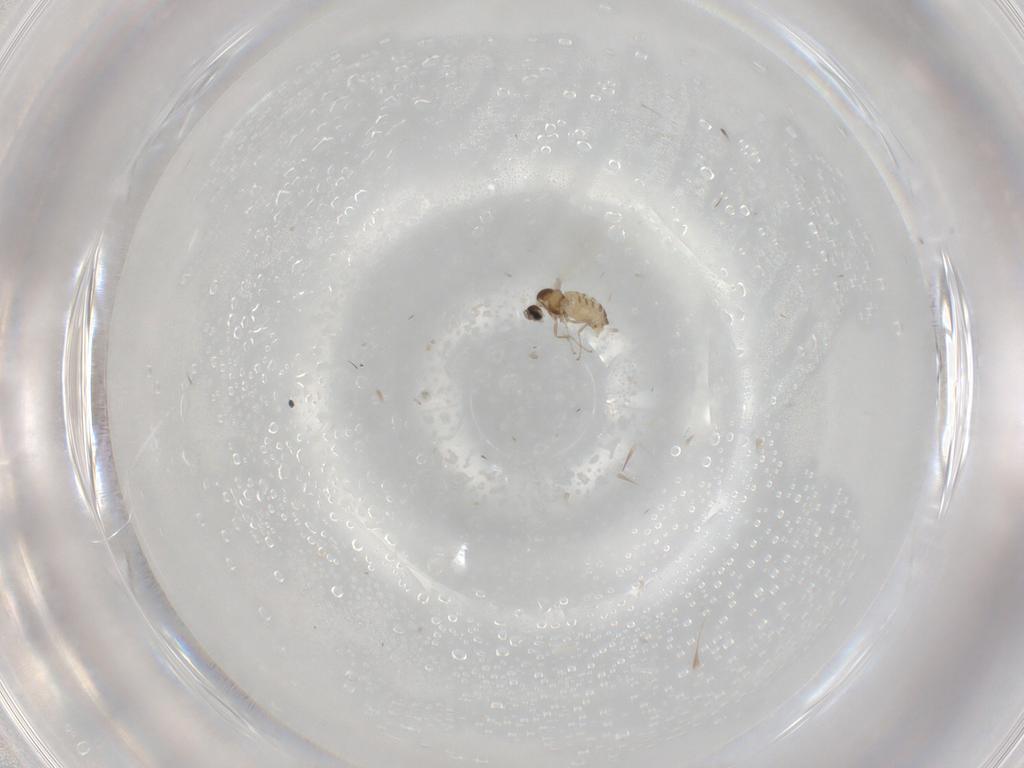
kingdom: Animalia
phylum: Arthropoda
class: Insecta
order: Diptera
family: Cecidomyiidae
